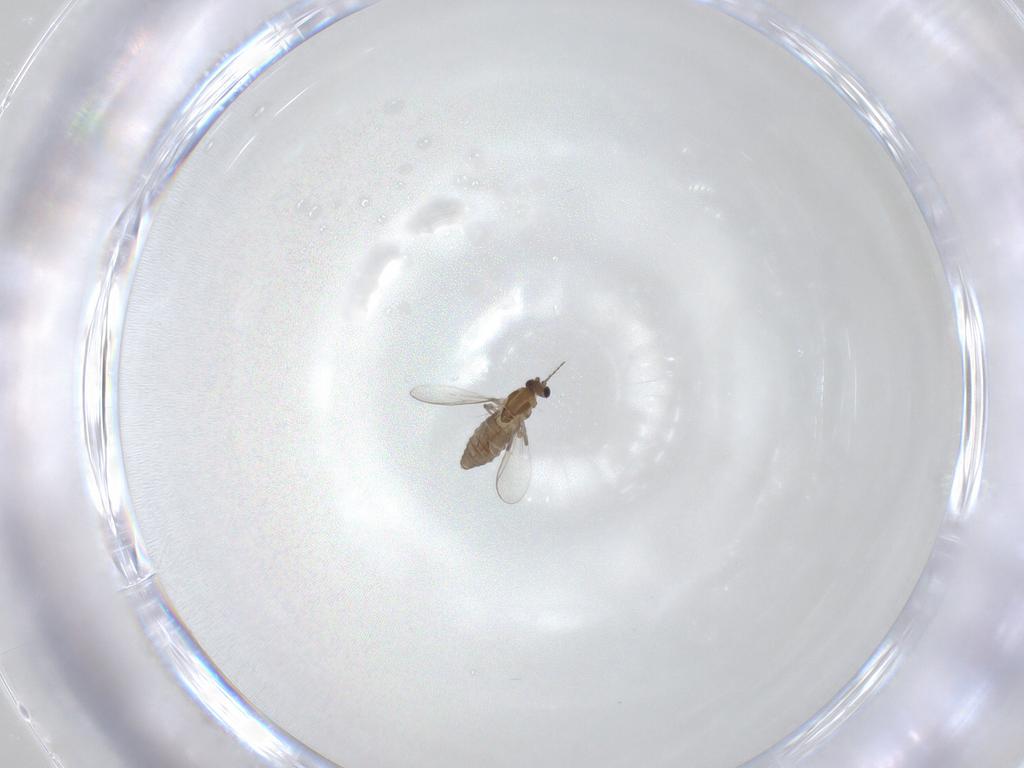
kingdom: Animalia
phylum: Arthropoda
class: Insecta
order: Diptera
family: Chironomidae
